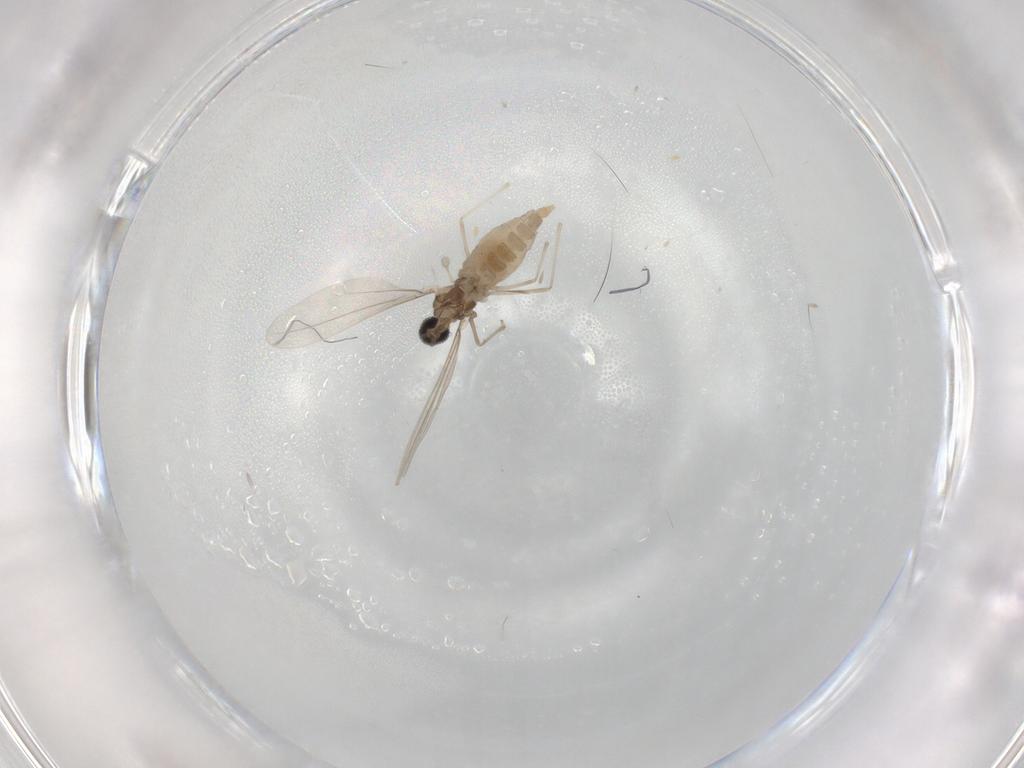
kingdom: Animalia
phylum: Arthropoda
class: Insecta
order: Diptera
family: Cecidomyiidae
